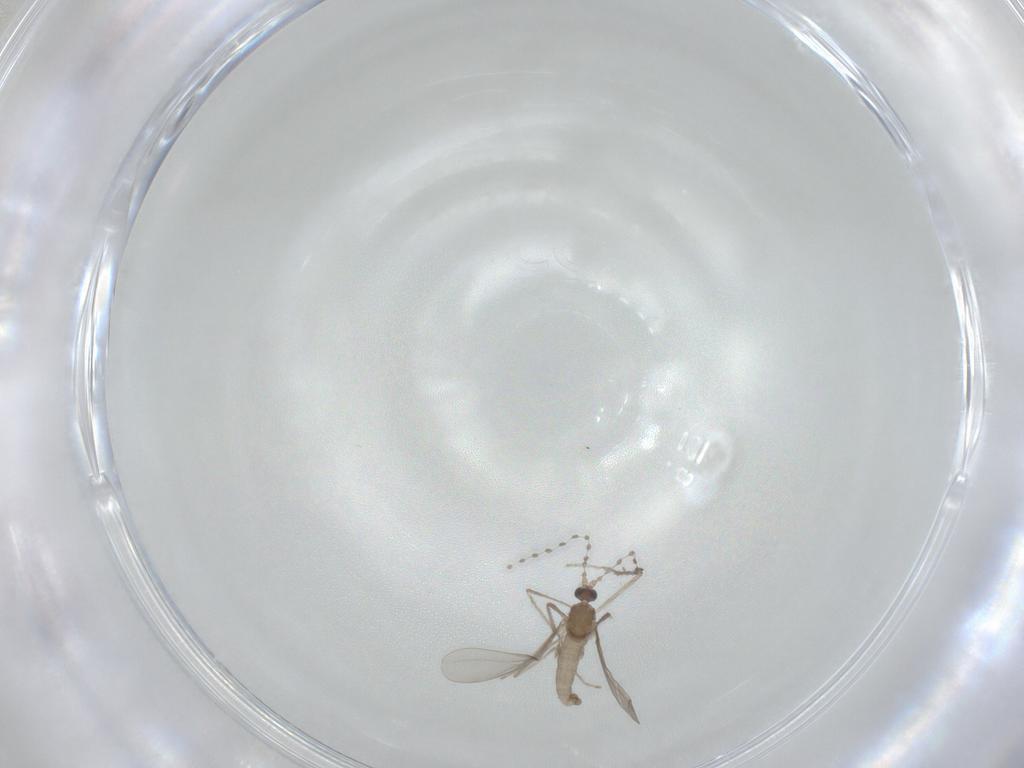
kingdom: Animalia
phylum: Arthropoda
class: Insecta
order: Diptera
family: Cecidomyiidae
